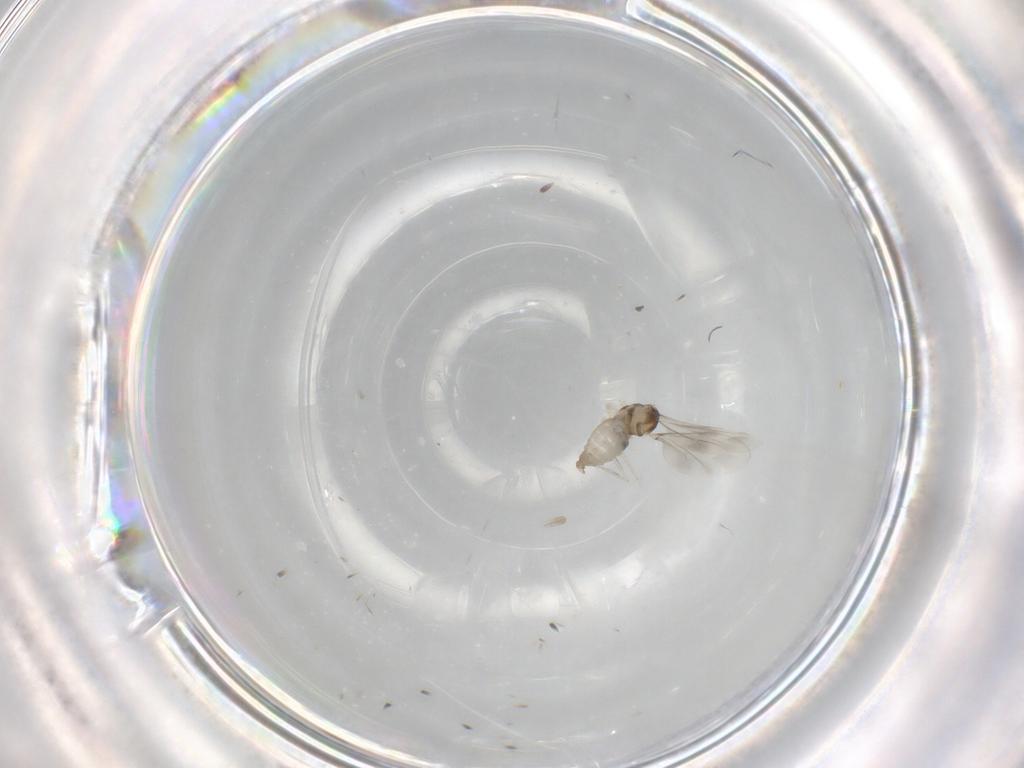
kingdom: Animalia
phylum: Arthropoda
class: Insecta
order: Diptera
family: Cecidomyiidae
